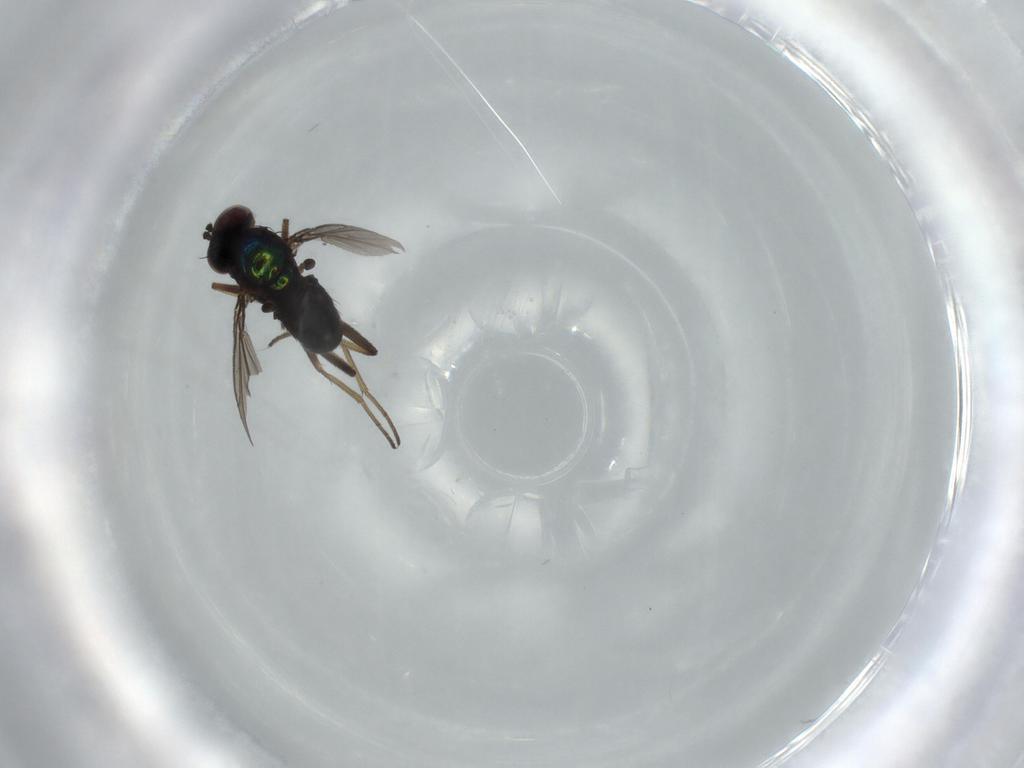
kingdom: Animalia
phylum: Arthropoda
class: Insecta
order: Diptera
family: Dolichopodidae
